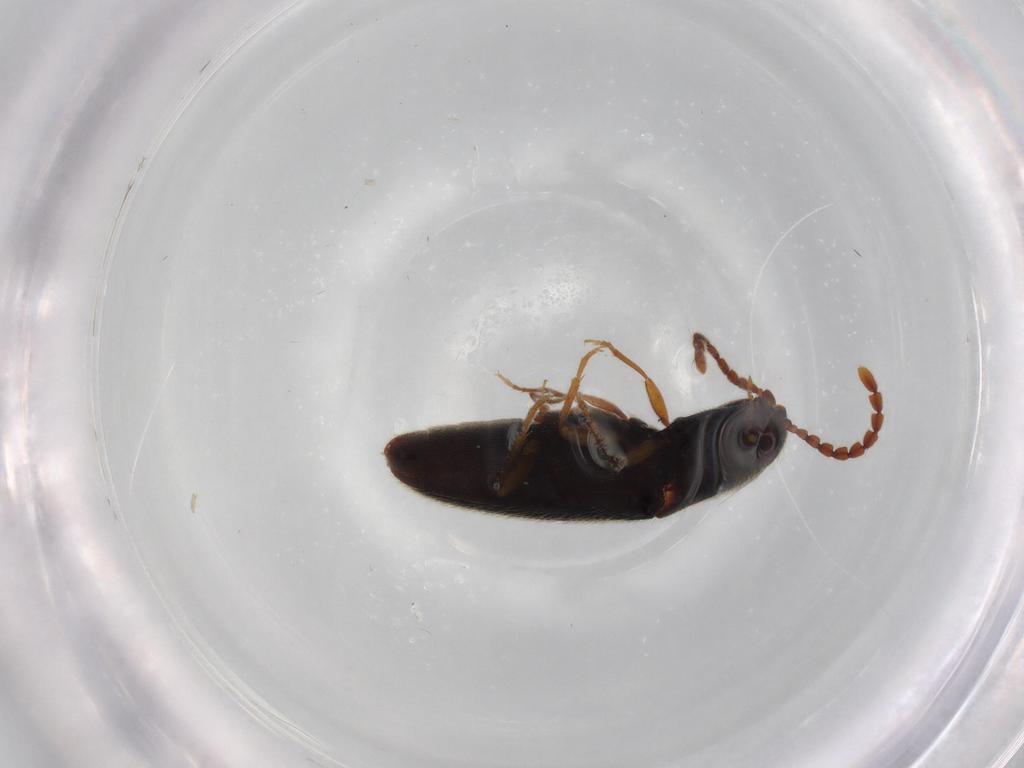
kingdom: Animalia
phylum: Arthropoda
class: Insecta
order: Coleoptera
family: Elateridae
